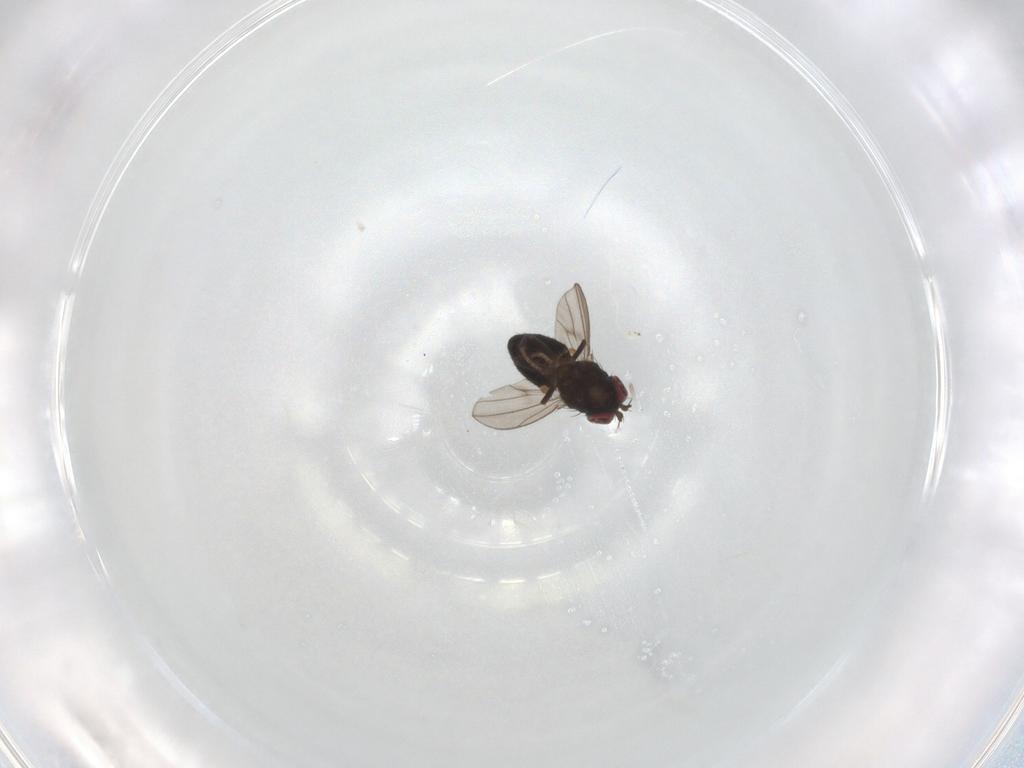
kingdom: Animalia
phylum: Arthropoda
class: Insecta
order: Diptera
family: Ephydridae
